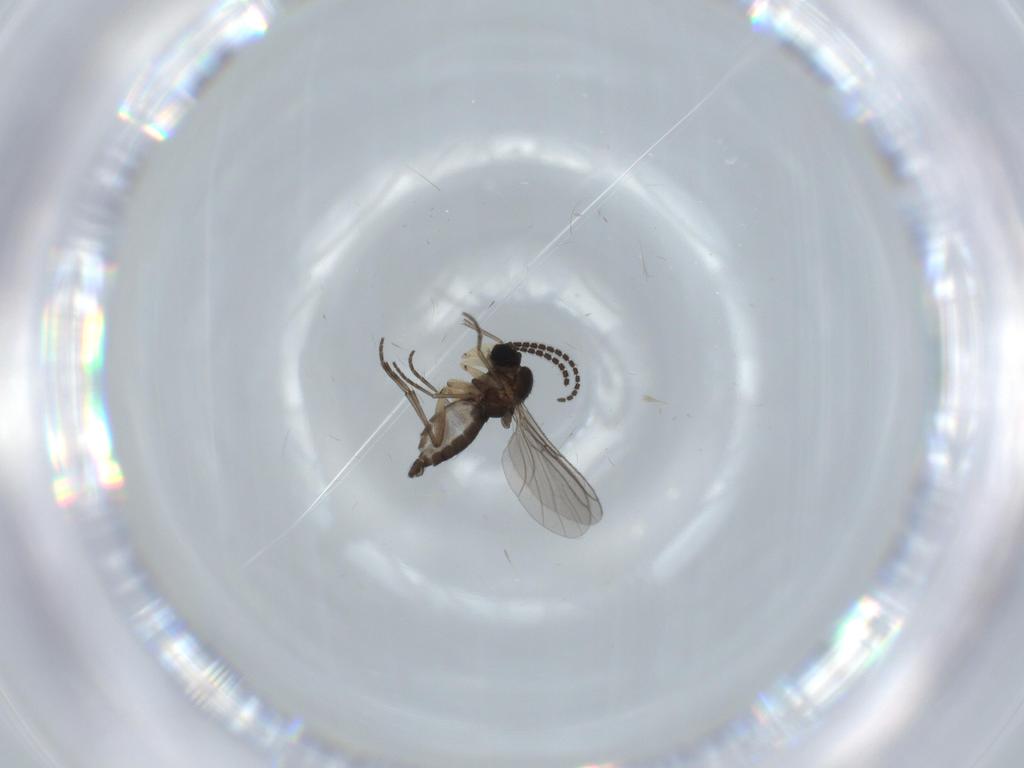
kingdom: Animalia
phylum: Arthropoda
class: Insecta
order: Diptera
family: Sciaridae
